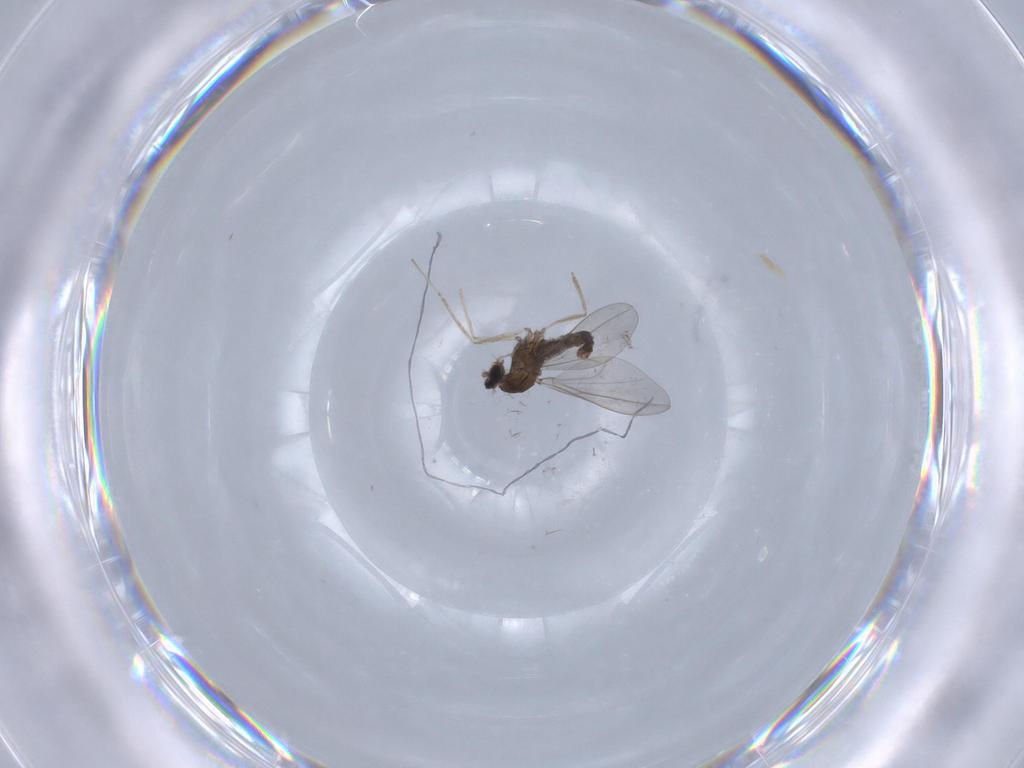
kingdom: Animalia
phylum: Arthropoda
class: Insecta
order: Diptera
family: Cecidomyiidae
